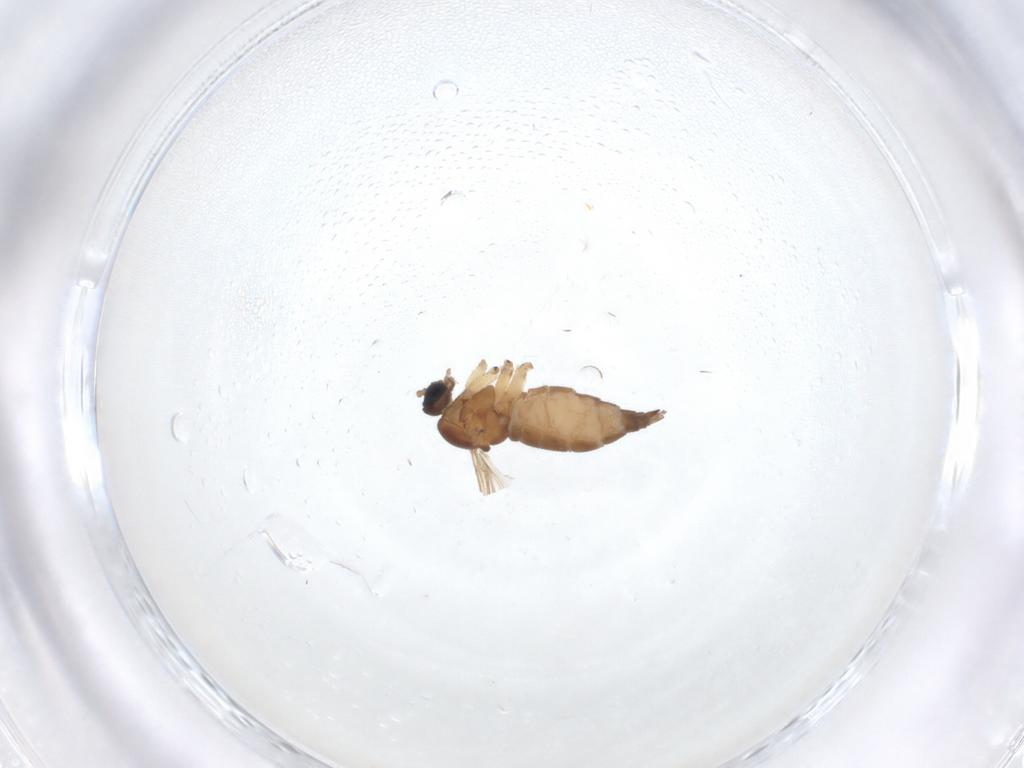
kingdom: Animalia
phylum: Arthropoda
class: Insecta
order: Diptera
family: Sciaridae
